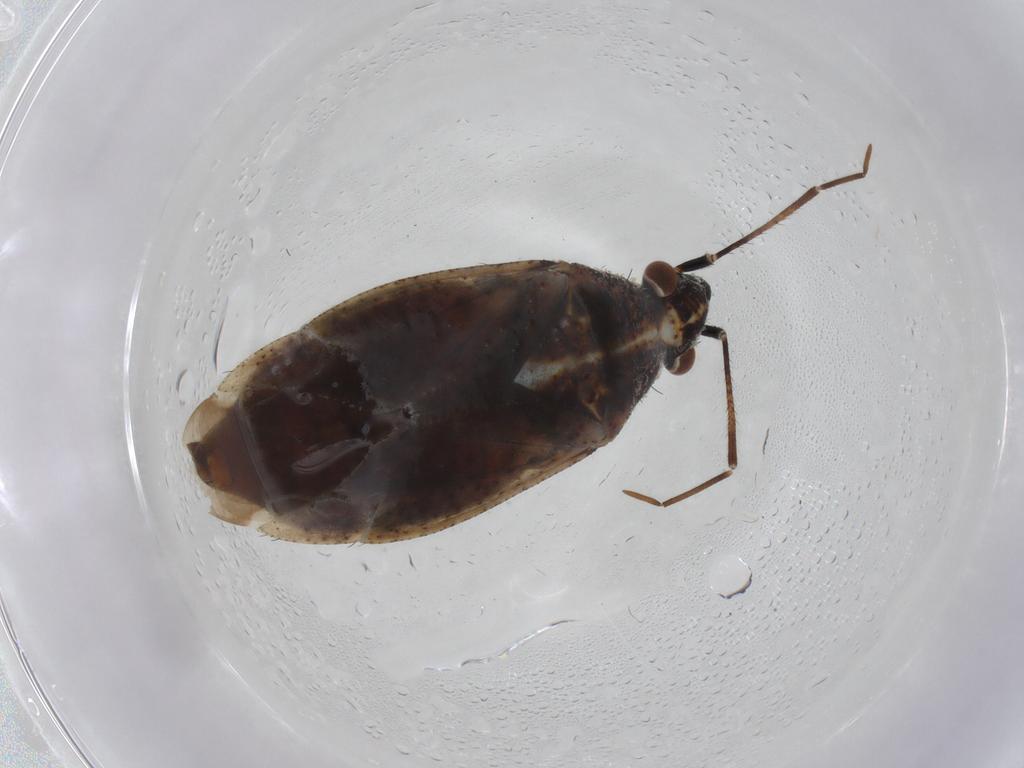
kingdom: Animalia
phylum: Arthropoda
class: Insecta
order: Hemiptera
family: Miridae
